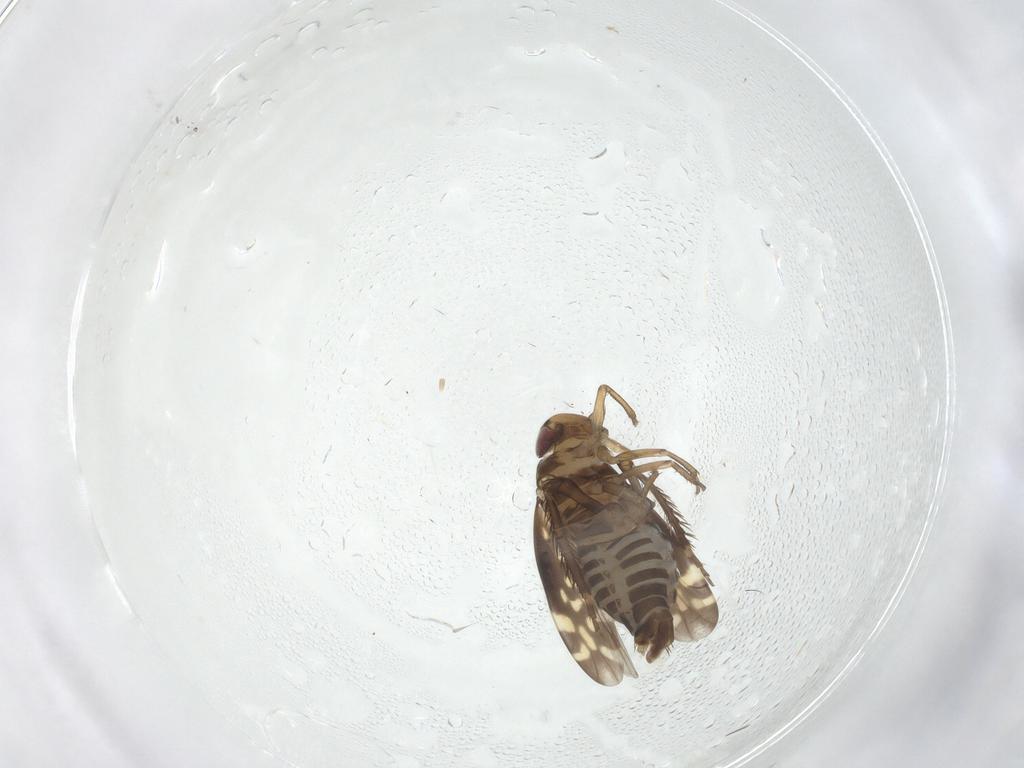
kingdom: Animalia
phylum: Arthropoda
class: Insecta
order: Hemiptera
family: Cicadellidae
